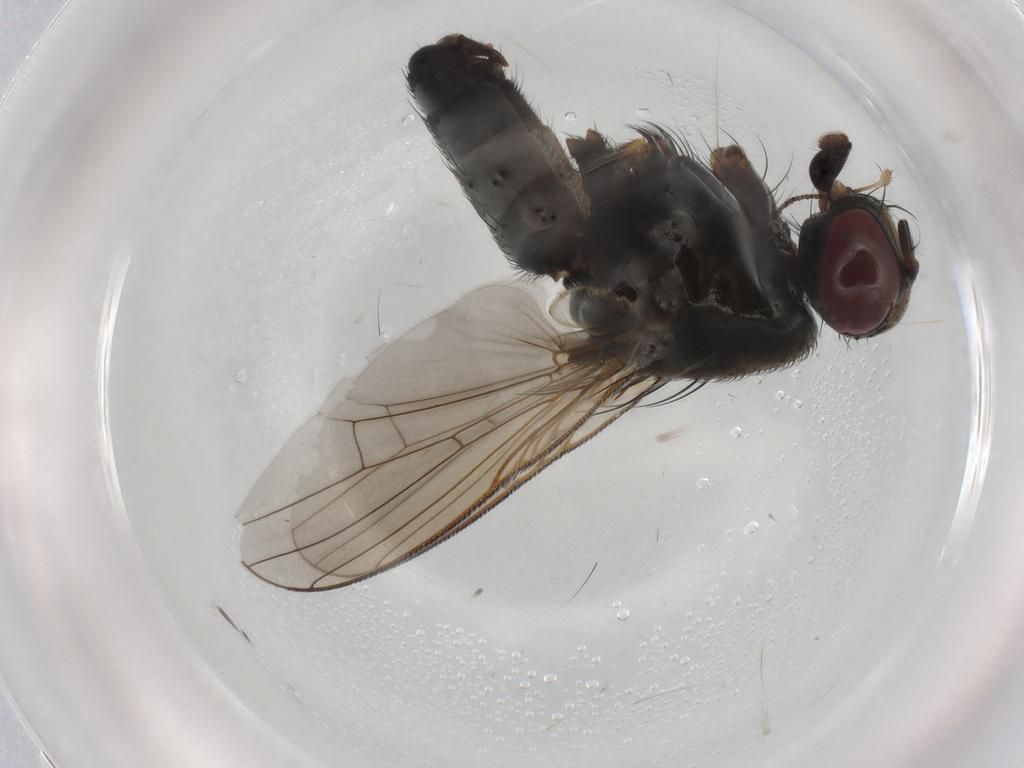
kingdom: Animalia
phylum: Arthropoda
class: Insecta
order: Diptera
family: Muscidae
